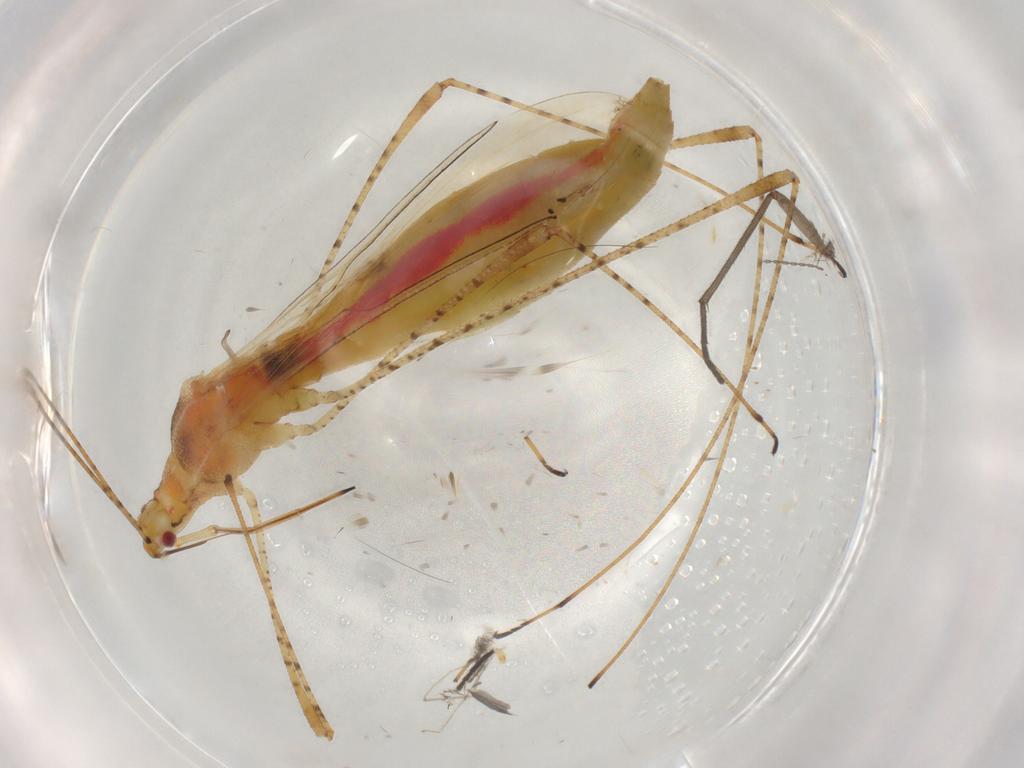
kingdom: Animalia
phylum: Arthropoda
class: Insecta
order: Hemiptera
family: Berytidae
